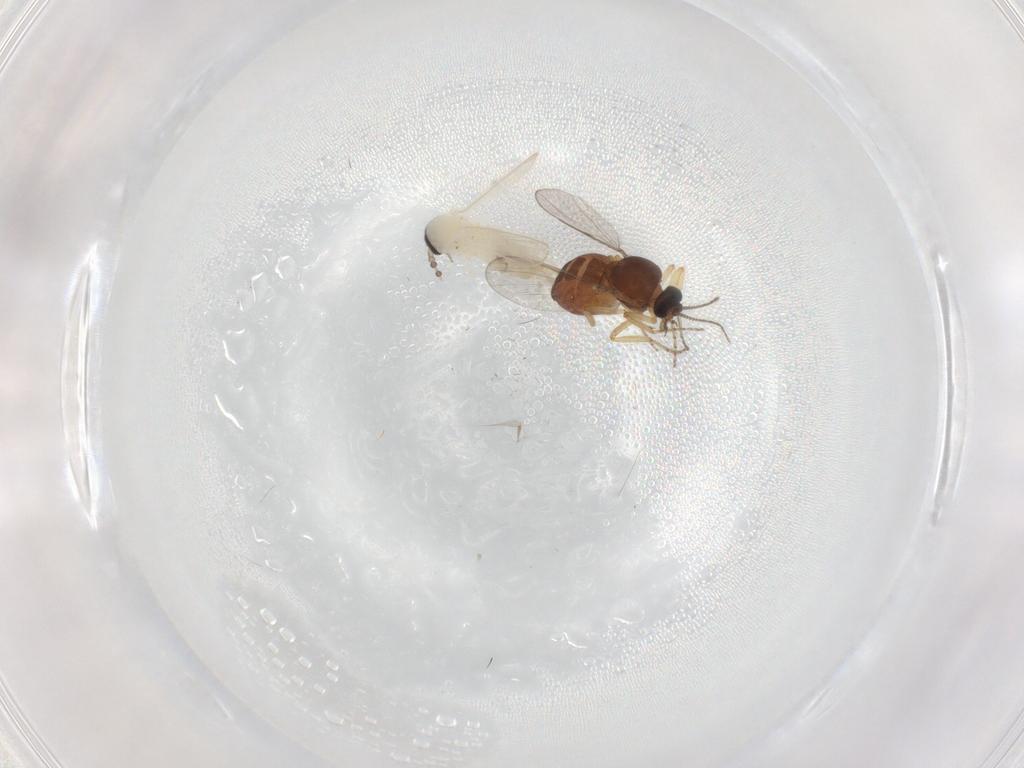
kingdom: Animalia
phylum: Arthropoda
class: Insecta
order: Diptera
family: Psychodidae
